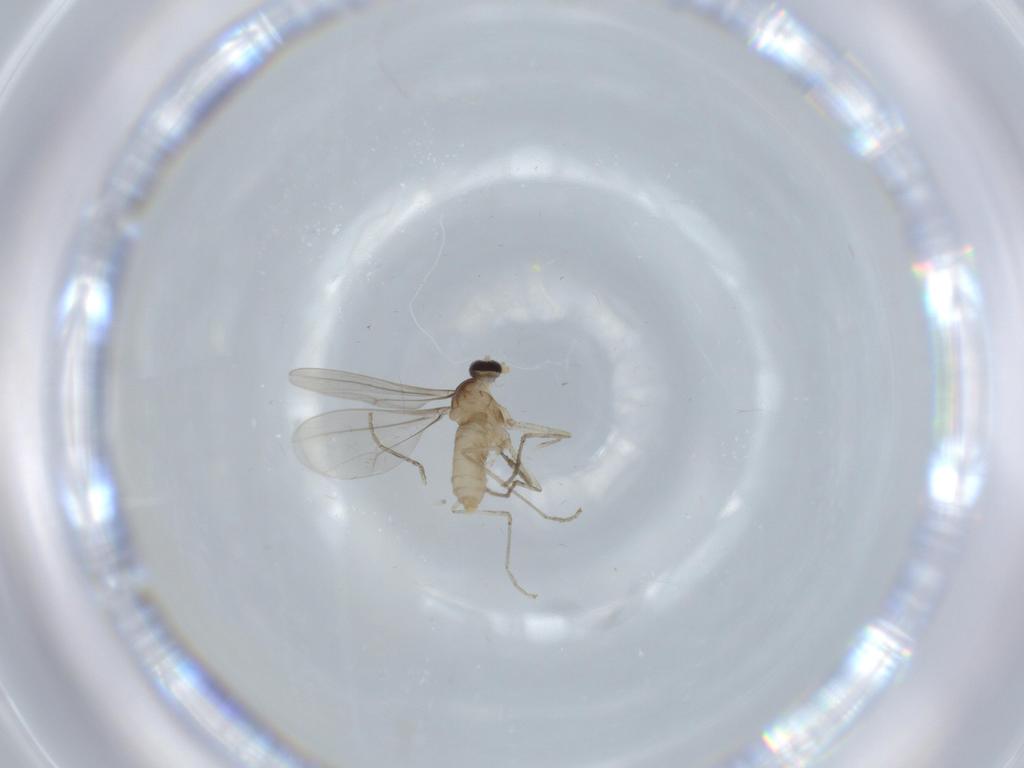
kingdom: Animalia
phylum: Arthropoda
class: Insecta
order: Diptera
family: Cecidomyiidae
